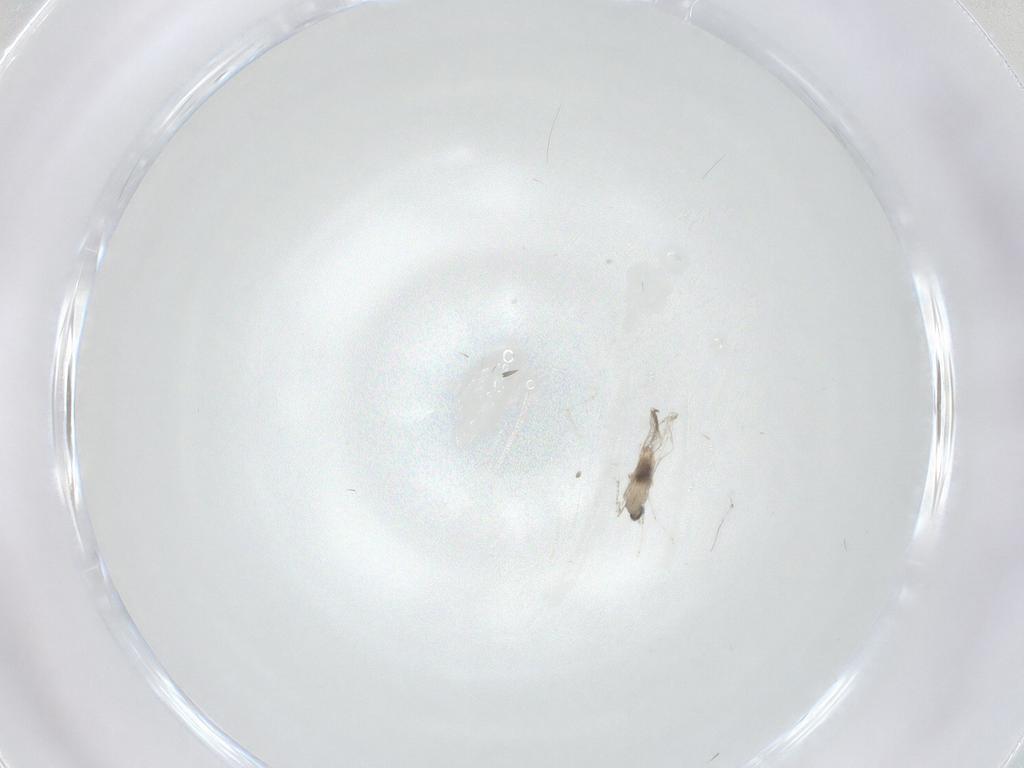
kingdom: Animalia
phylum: Arthropoda
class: Insecta
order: Diptera
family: Cecidomyiidae
